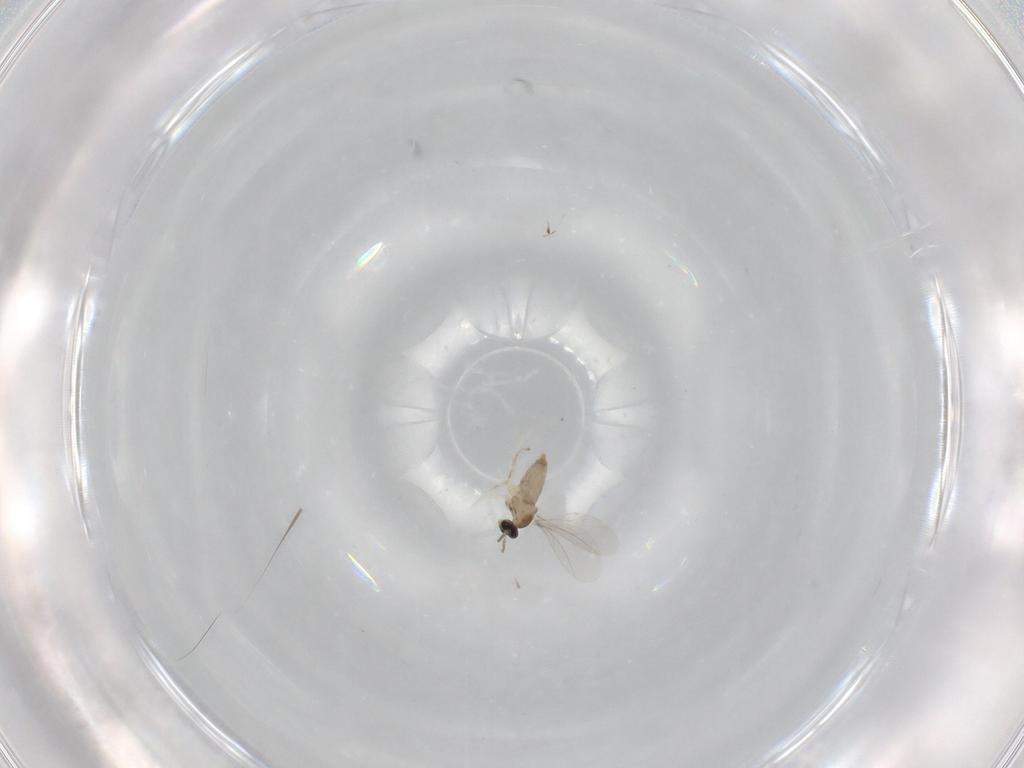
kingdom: Animalia
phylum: Arthropoda
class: Insecta
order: Diptera
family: Cecidomyiidae
